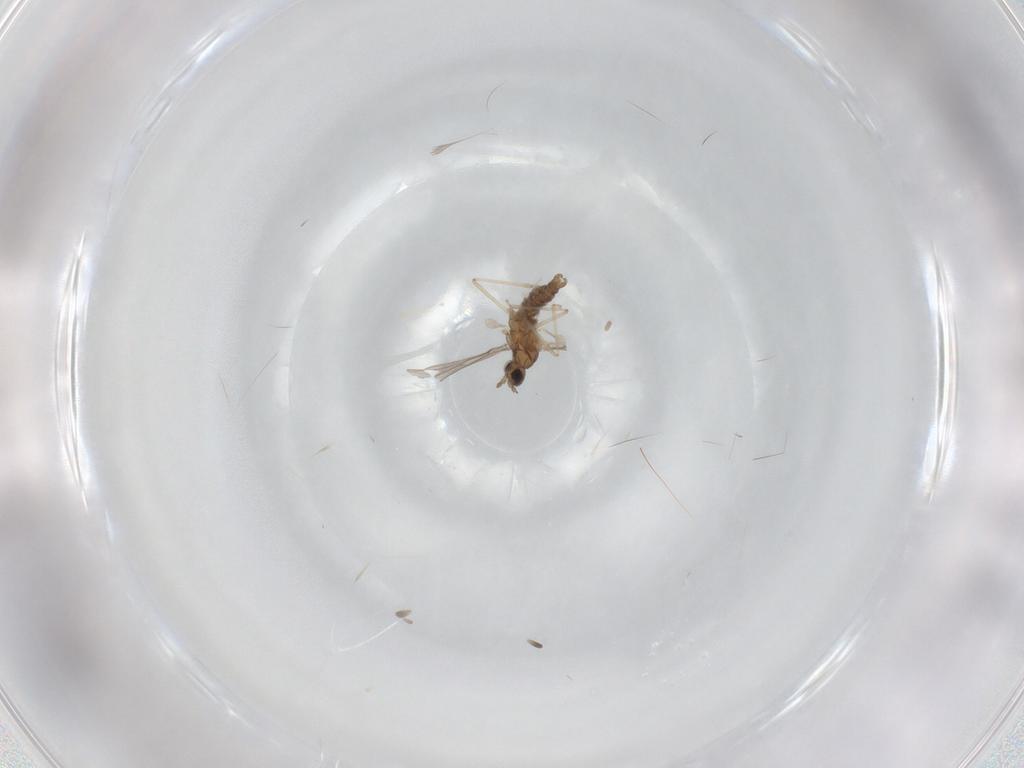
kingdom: Animalia
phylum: Arthropoda
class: Insecta
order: Diptera
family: Cecidomyiidae
